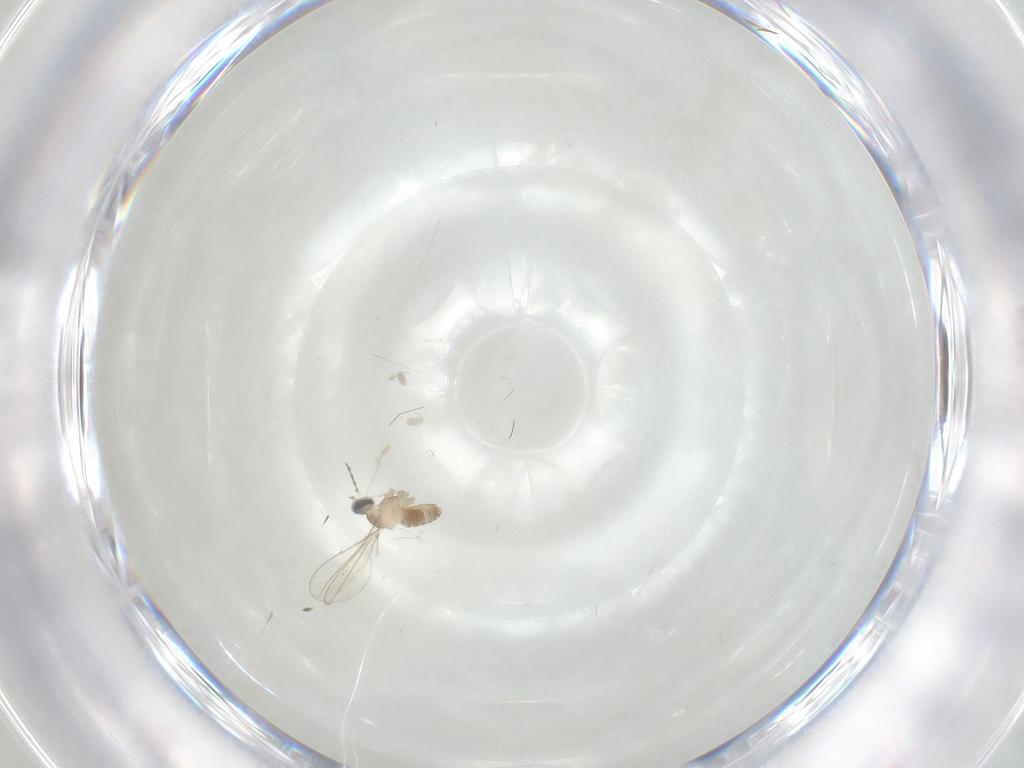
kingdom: Animalia
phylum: Arthropoda
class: Insecta
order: Diptera
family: Cecidomyiidae
